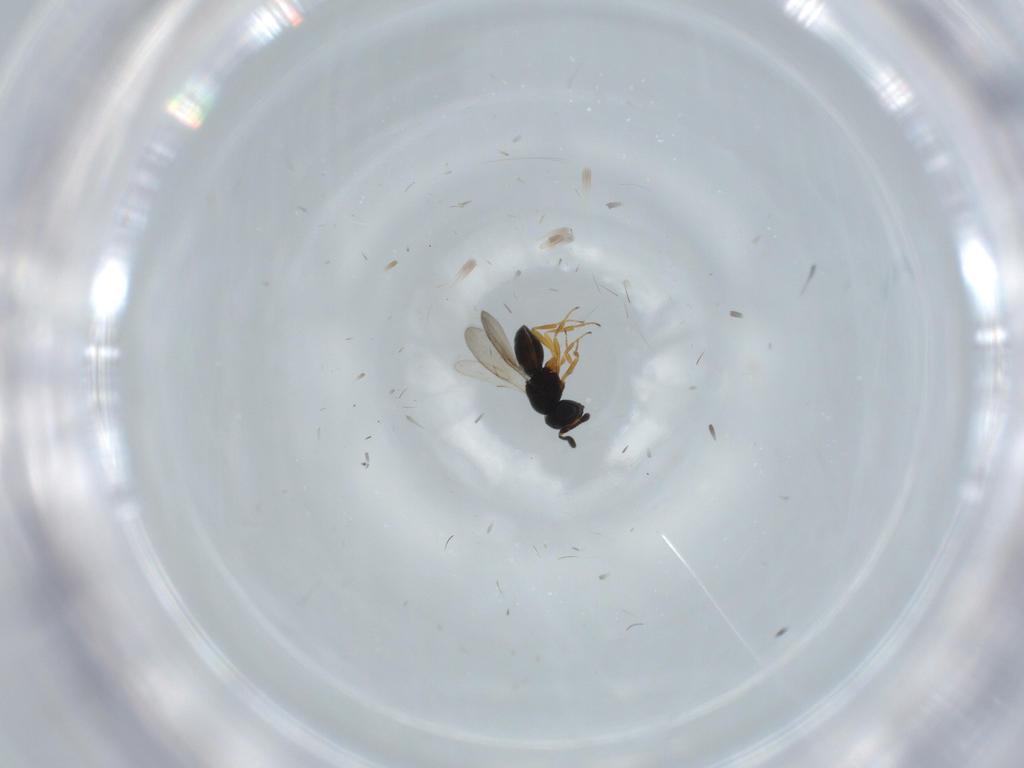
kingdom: Animalia
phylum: Arthropoda
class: Insecta
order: Hymenoptera
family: Scelionidae
